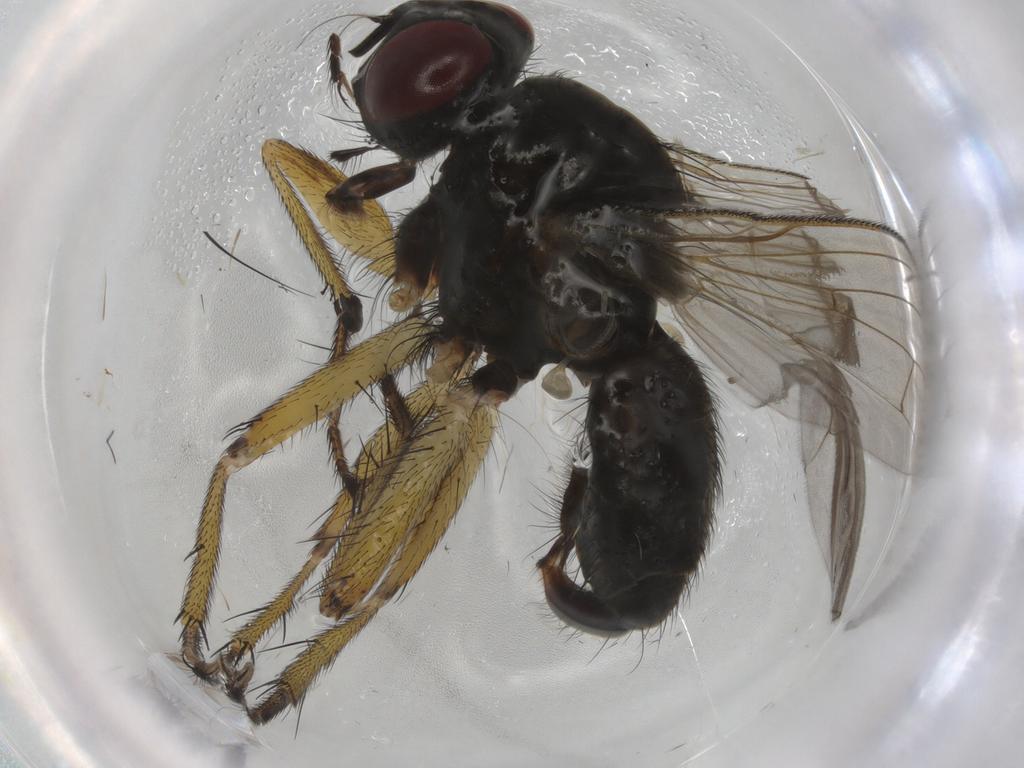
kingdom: Animalia
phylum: Arthropoda
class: Insecta
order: Diptera
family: Muscidae
